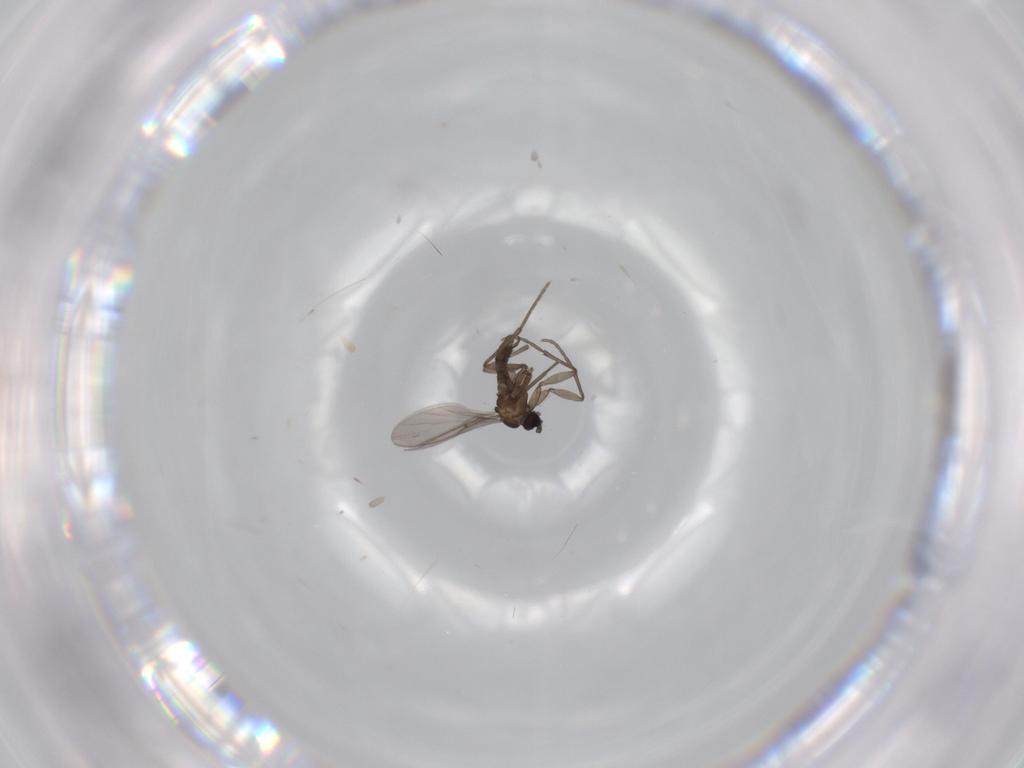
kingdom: Animalia
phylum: Arthropoda
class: Insecta
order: Diptera
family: Sciaridae
